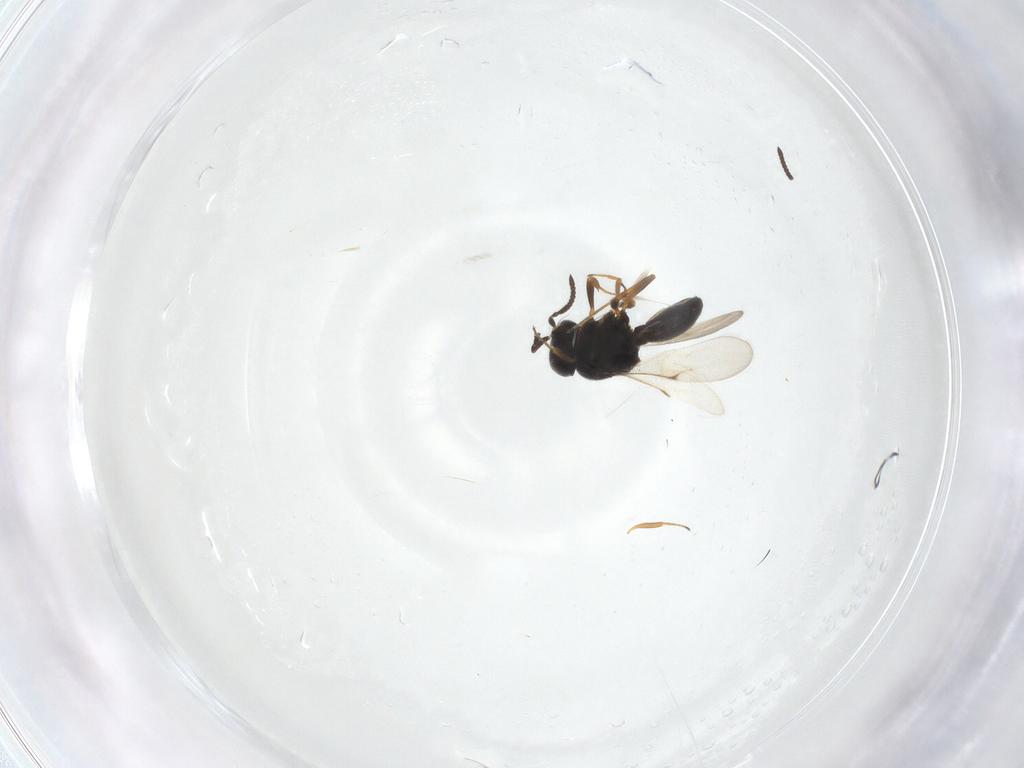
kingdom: Animalia
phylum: Arthropoda
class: Insecta
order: Hymenoptera
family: Scelionidae
